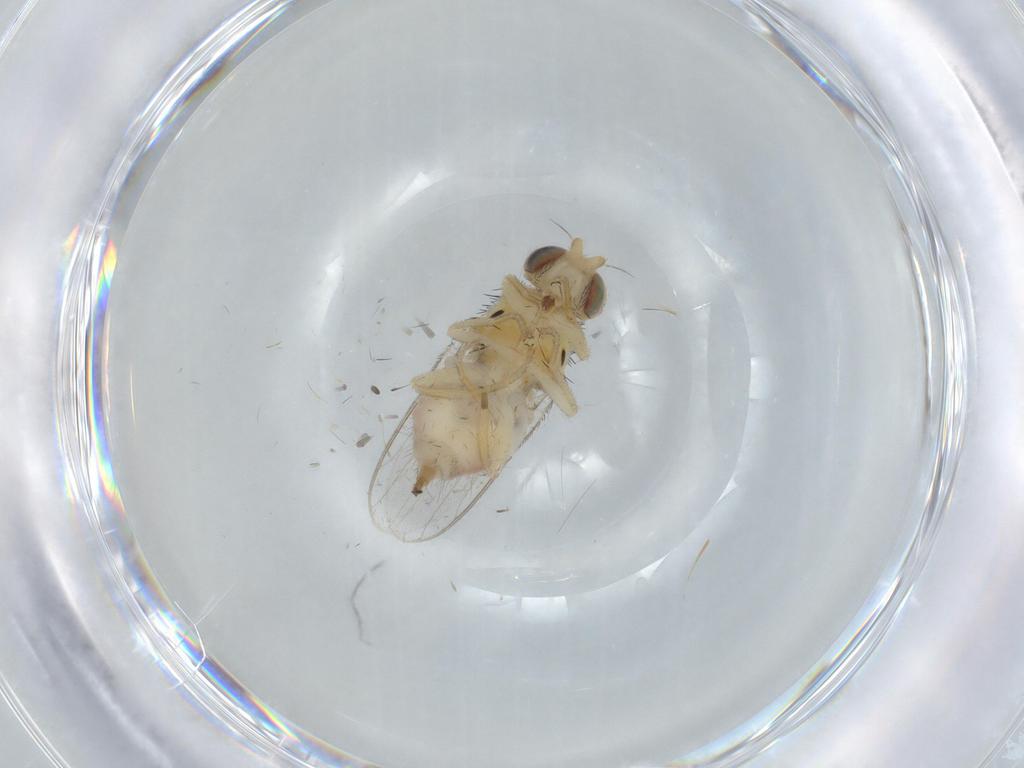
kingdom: Animalia
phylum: Arthropoda
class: Insecta
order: Diptera
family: Chloropidae
